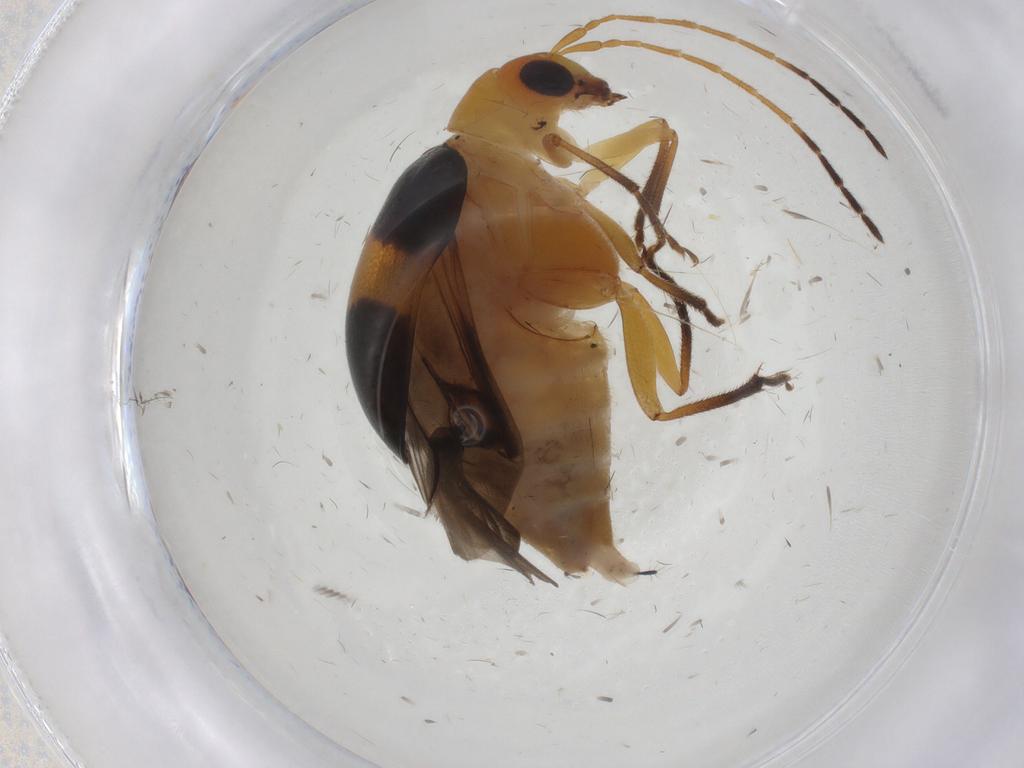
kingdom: Animalia
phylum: Arthropoda
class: Insecta
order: Coleoptera
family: Chrysomelidae
